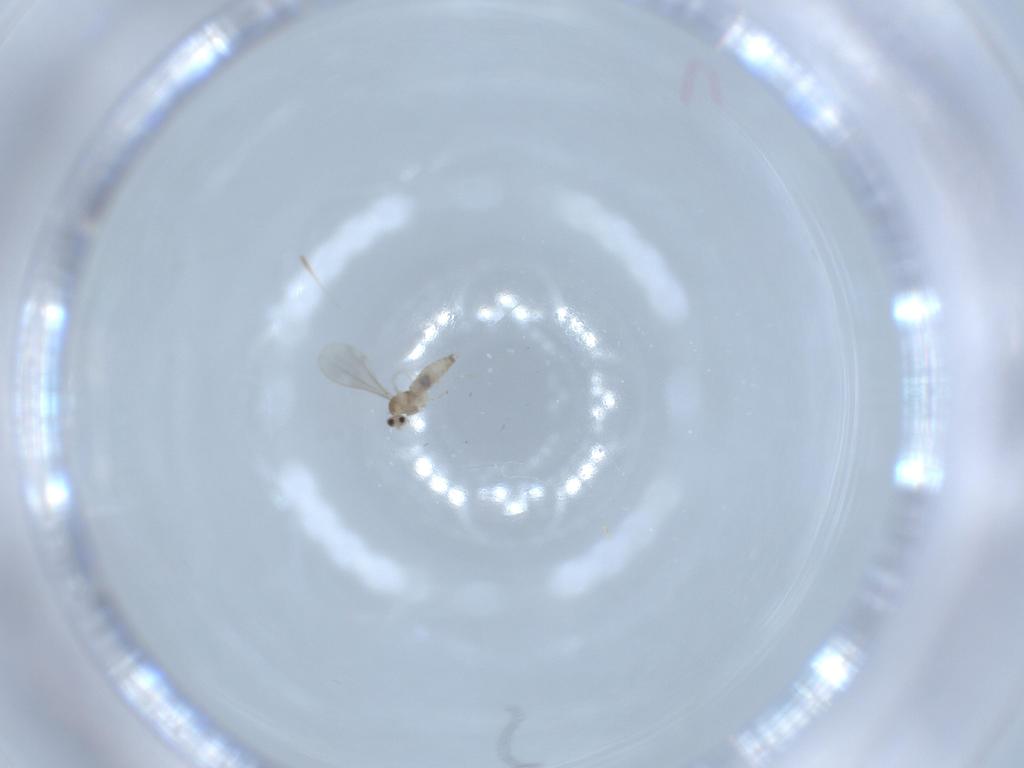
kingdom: Animalia
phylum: Arthropoda
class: Insecta
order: Diptera
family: Cecidomyiidae
